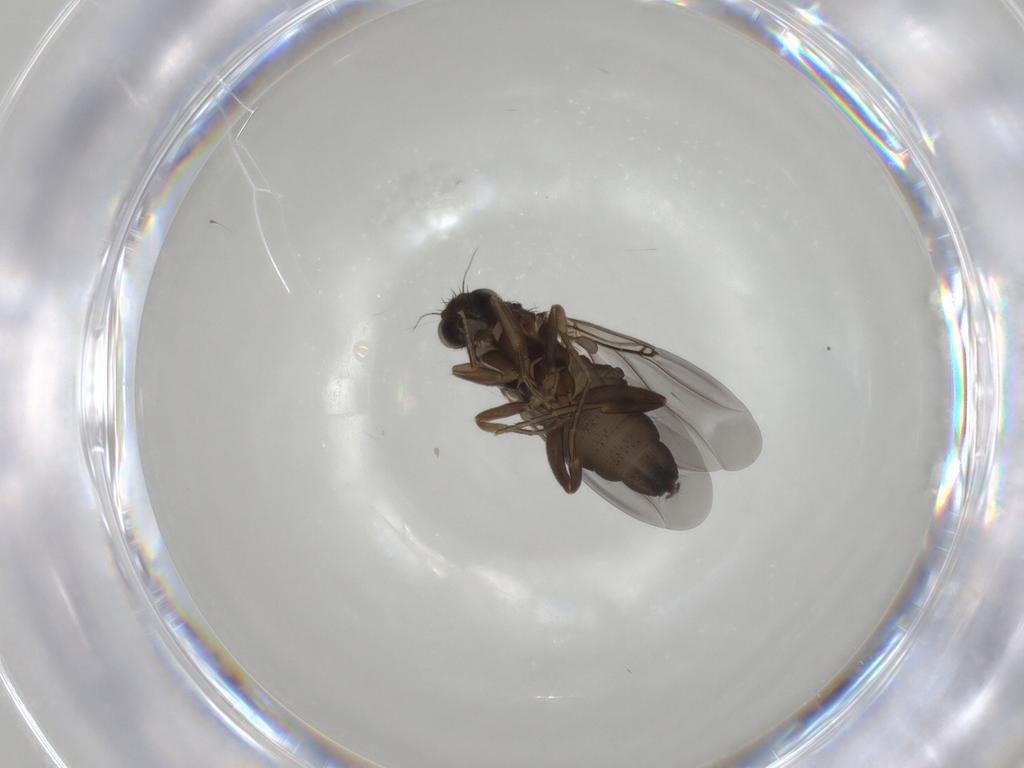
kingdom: Animalia
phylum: Arthropoda
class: Insecta
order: Diptera
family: Phoridae
